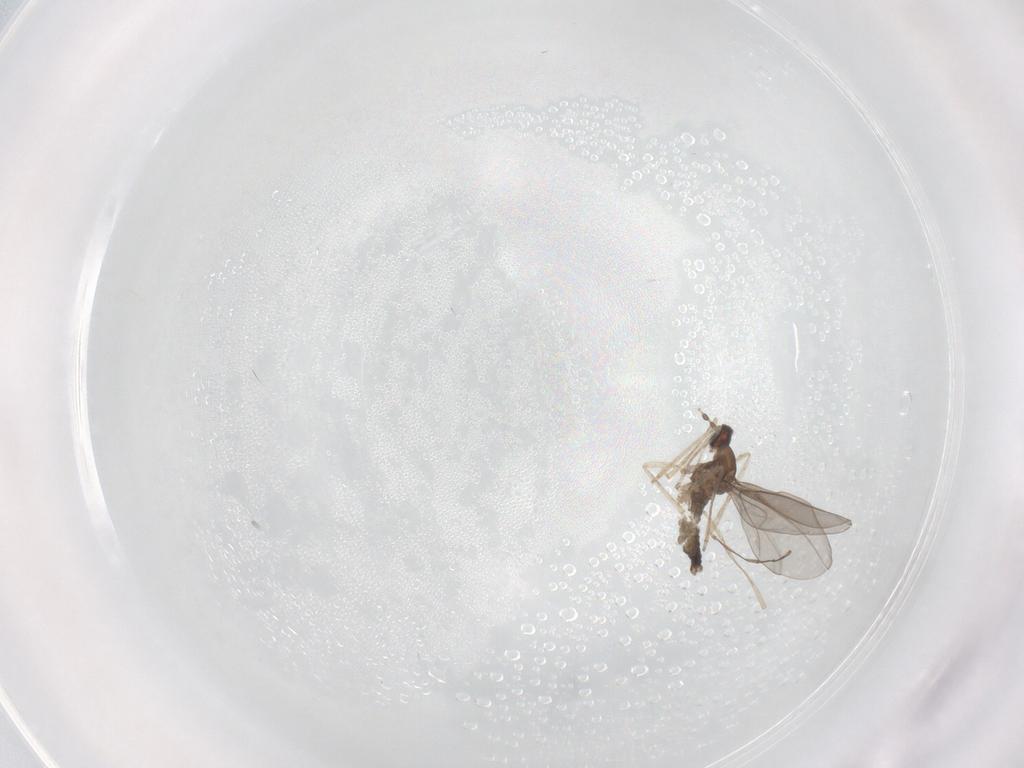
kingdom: Animalia
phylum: Arthropoda
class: Insecta
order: Diptera
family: Cecidomyiidae
